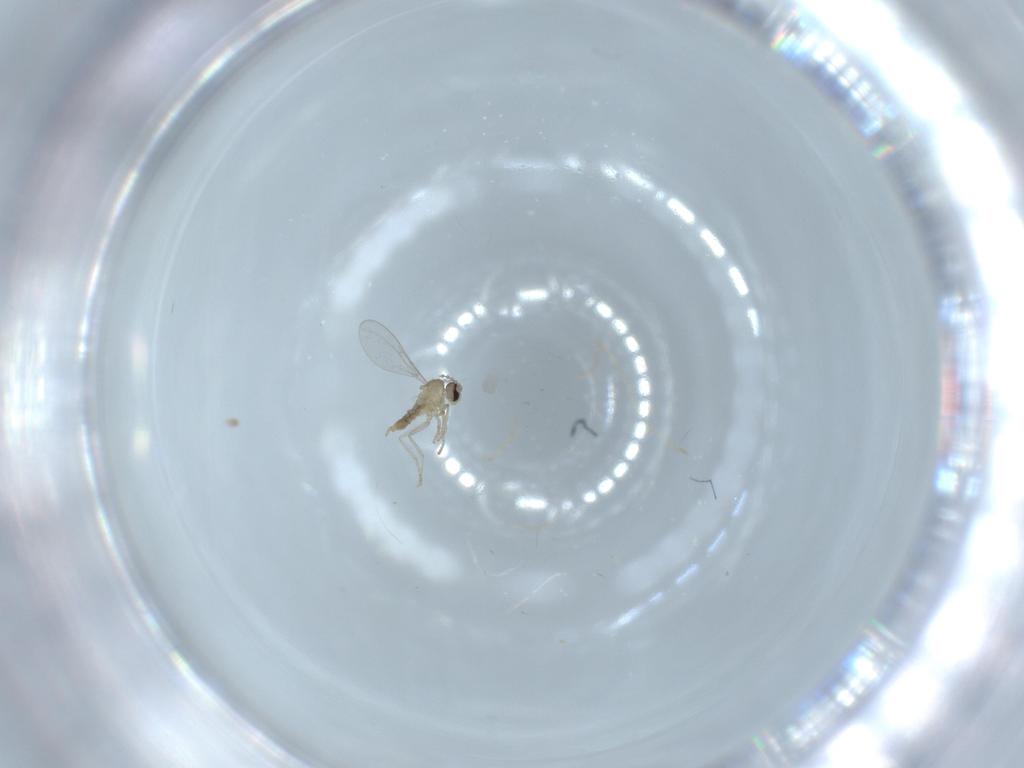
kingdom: Animalia
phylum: Arthropoda
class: Insecta
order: Diptera
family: Cecidomyiidae
